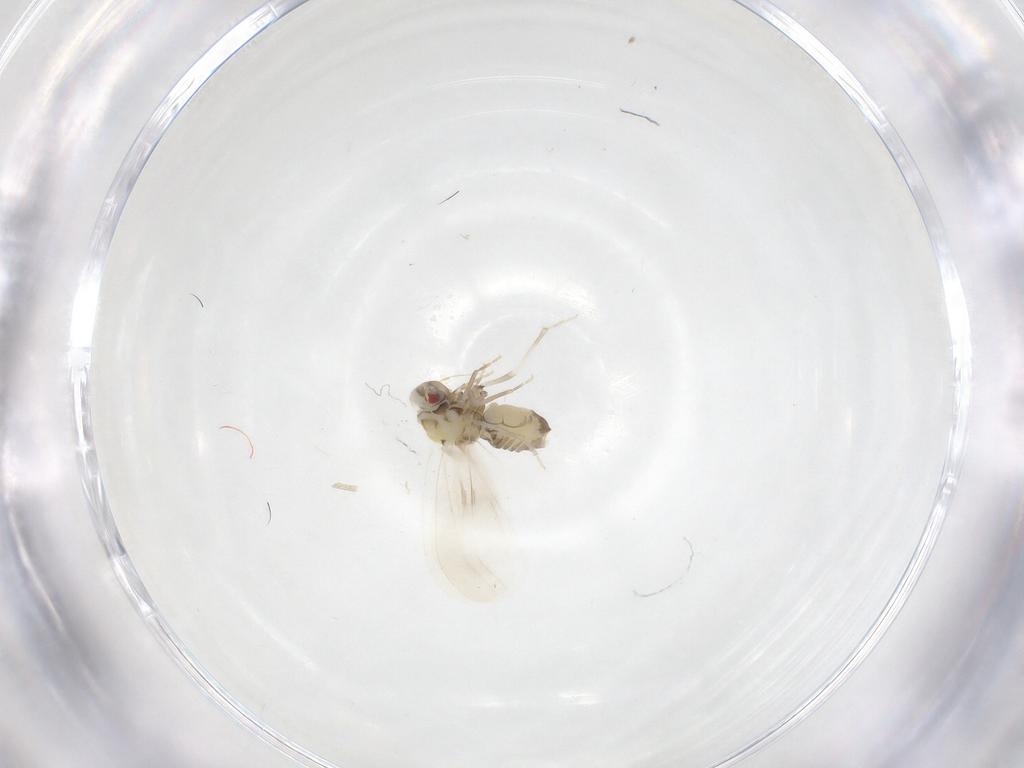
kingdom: Animalia
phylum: Arthropoda
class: Insecta
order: Hemiptera
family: Aleyrodidae
